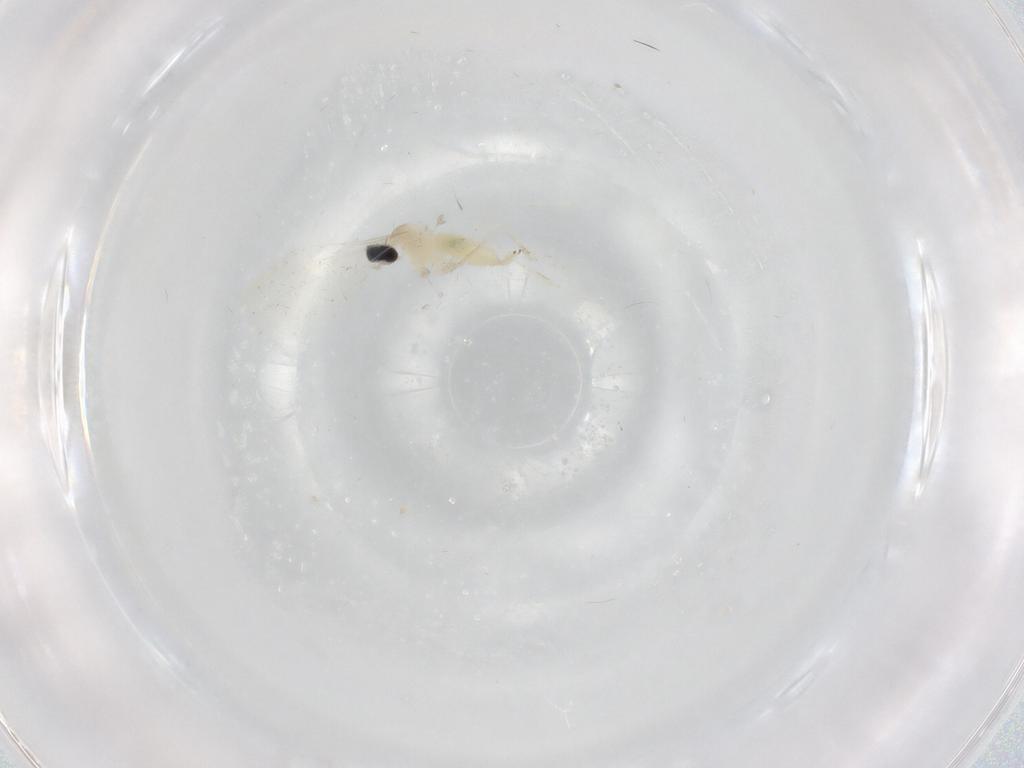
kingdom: Animalia
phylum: Arthropoda
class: Insecta
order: Diptera
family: Cecidomyiidae
